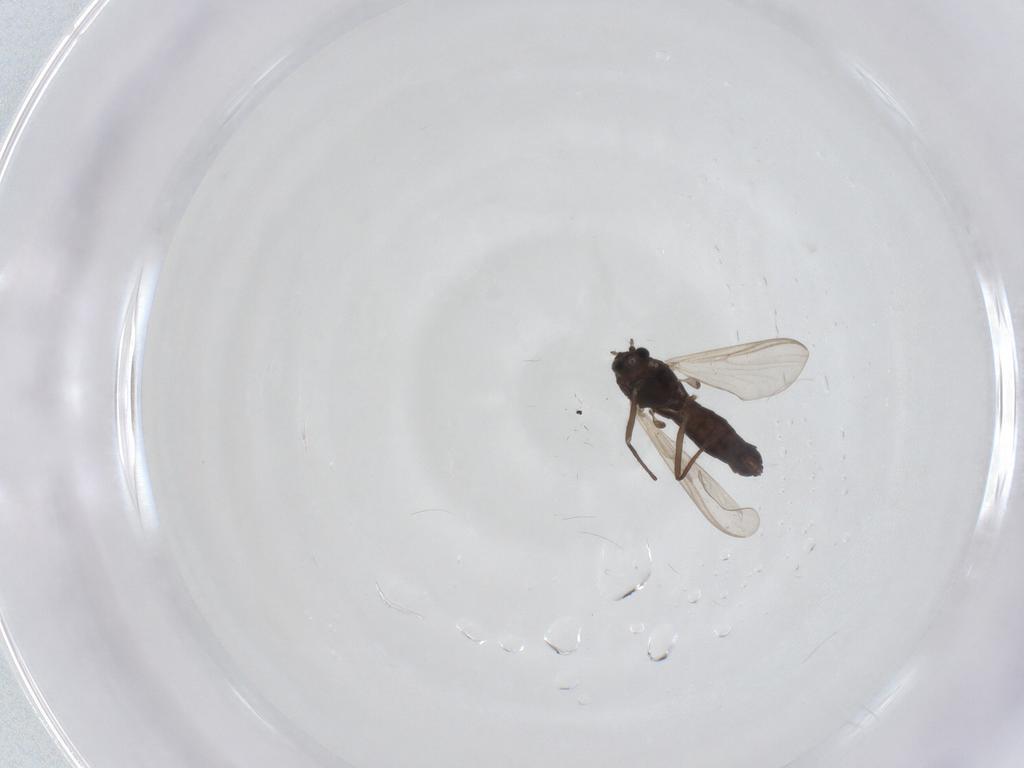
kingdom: Animalia
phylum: Arthropoda
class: Insecta
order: Diptera
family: Chironomidae
